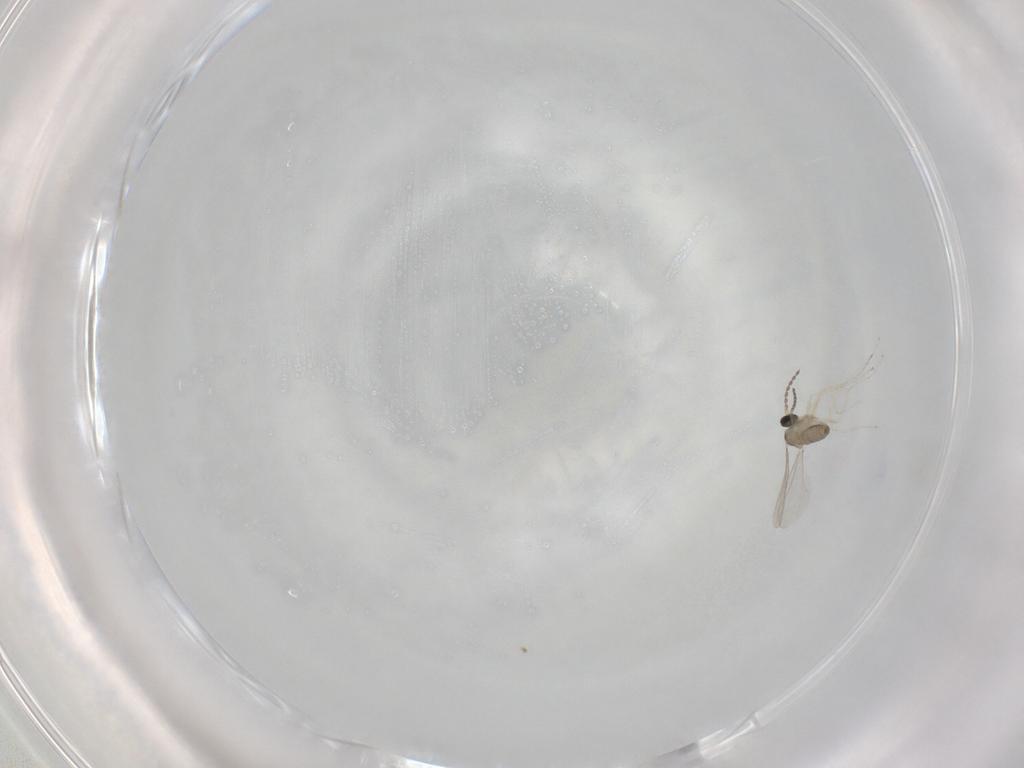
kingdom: Animalia
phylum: Arthropoda
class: Insecta
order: Diptera
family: Cecidomyiidae
